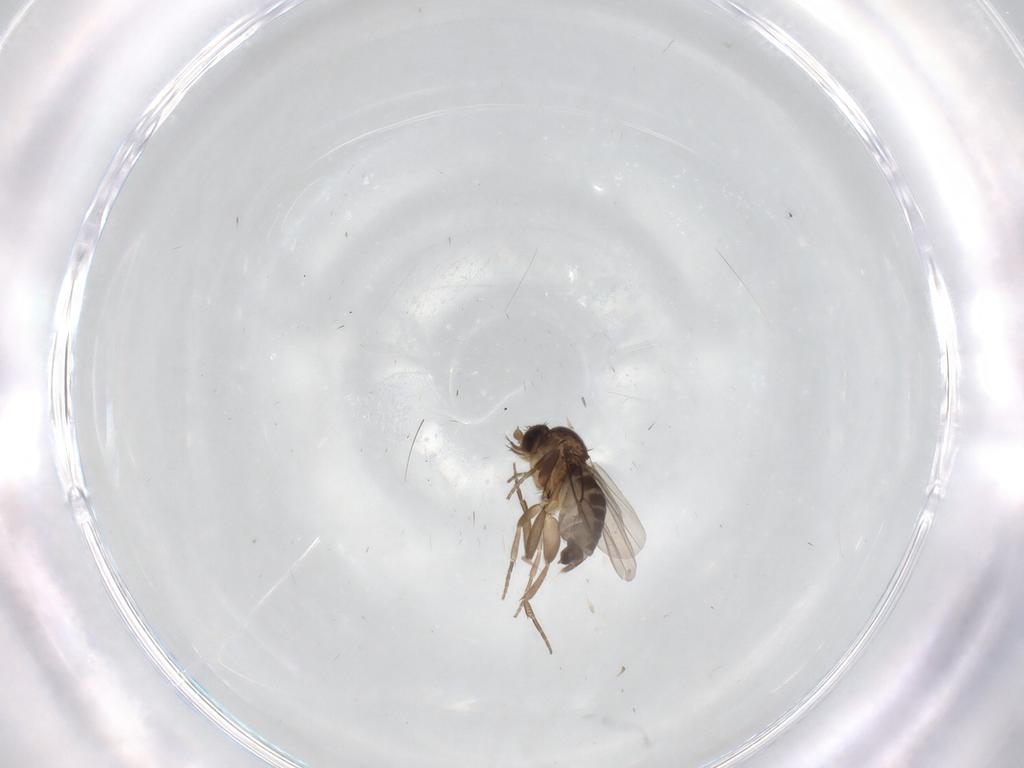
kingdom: Animalia
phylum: Arthropoda
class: Insecta
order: Diptera
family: Phoridae
